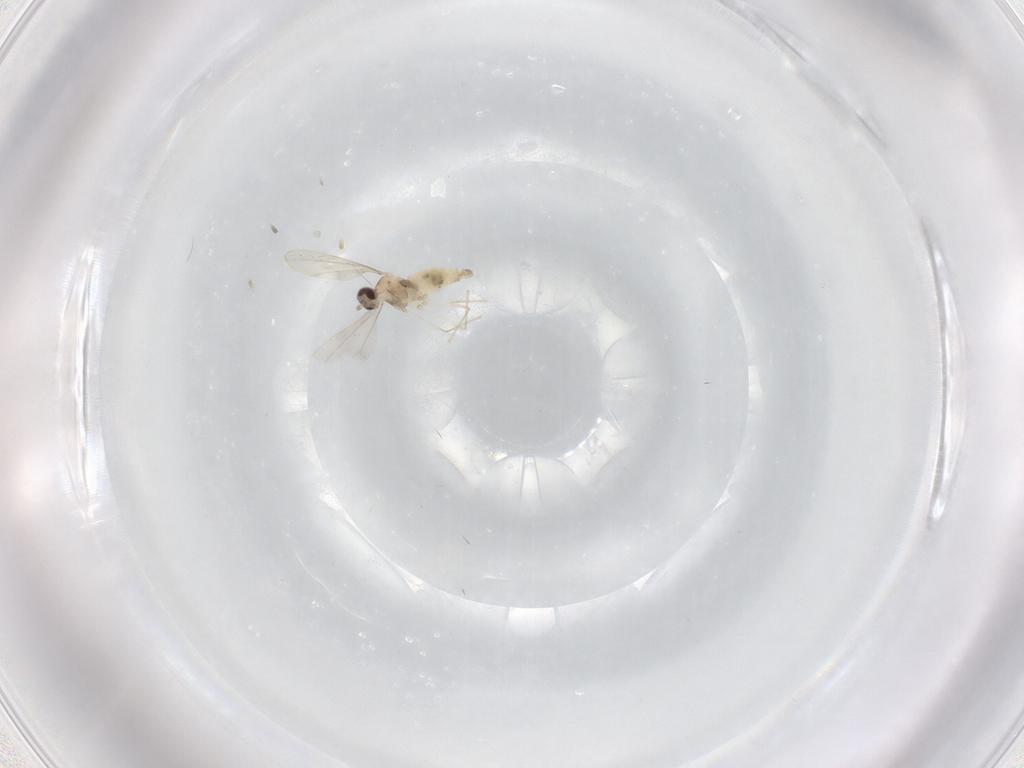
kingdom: Animalia
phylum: Arthropoda
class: Insecta
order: Diptera
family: Cecidomyiidae
